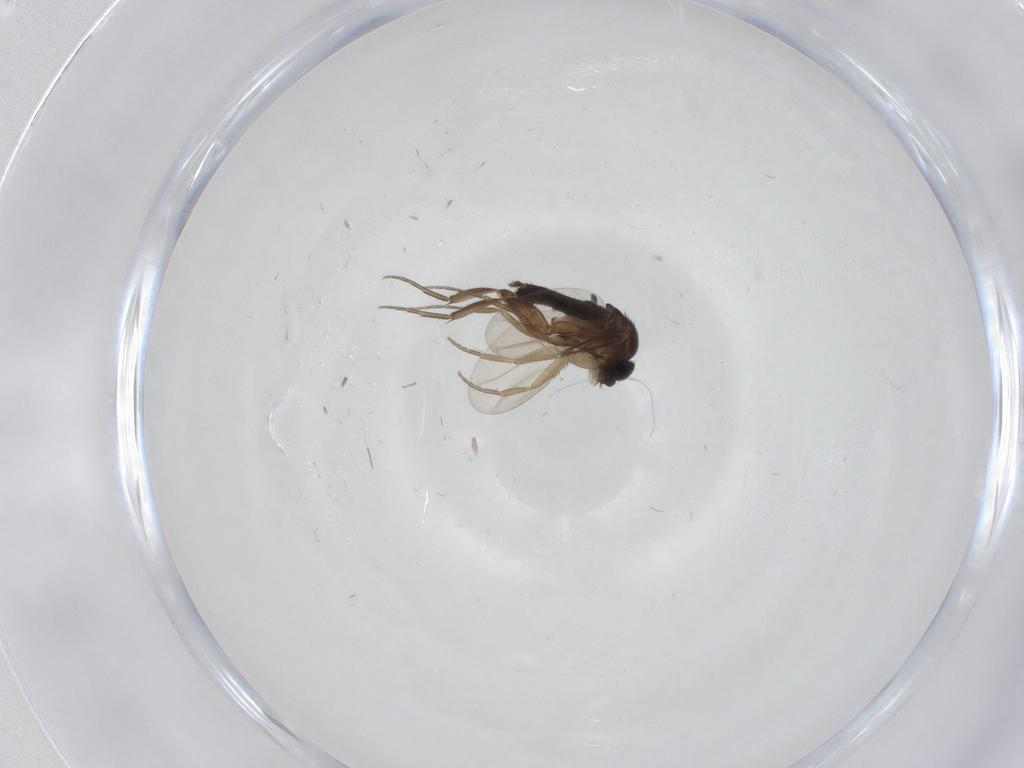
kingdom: Animalia
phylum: Arthropoda
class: Insecta
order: Diptera
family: Phoridae
